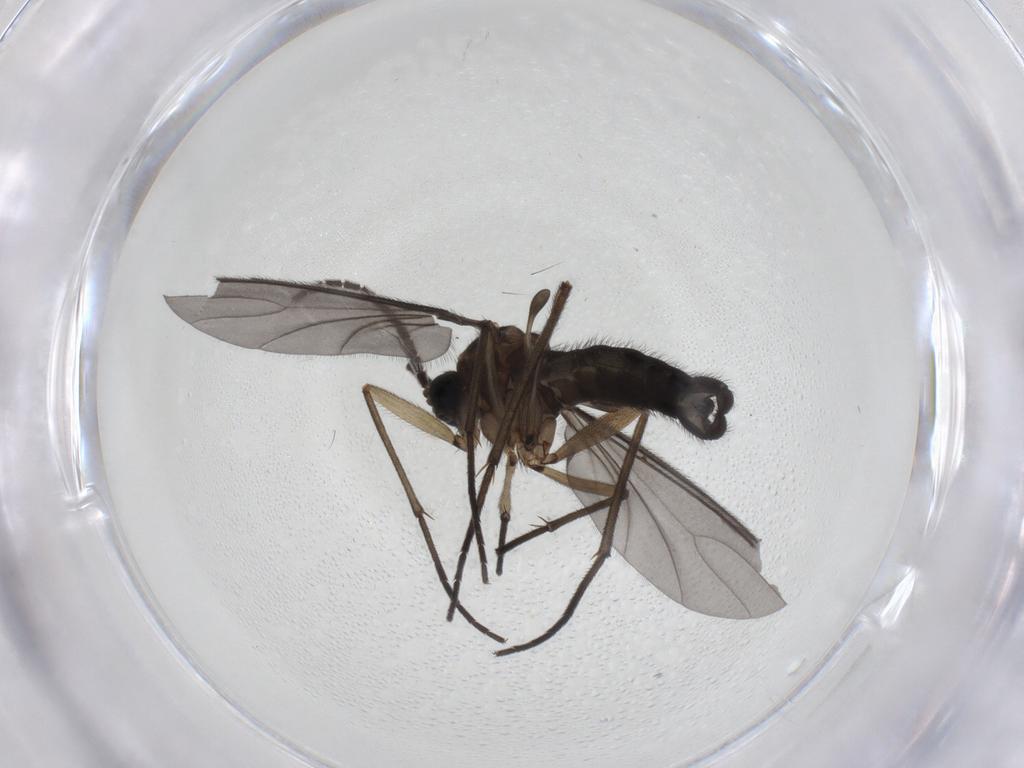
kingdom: Animalia
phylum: Arthropoda
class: Insecta
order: Diptera
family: Sciaridae
